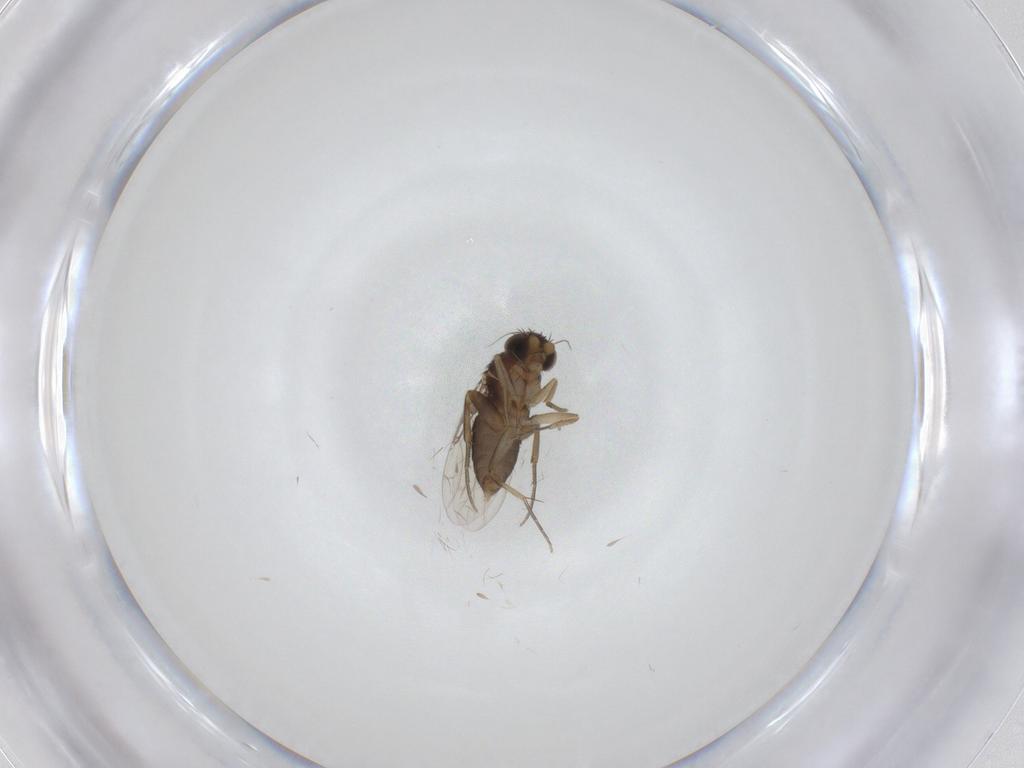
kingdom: Animalia
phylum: Arthropoda
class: Insecta
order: Diptera
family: Phoridae
